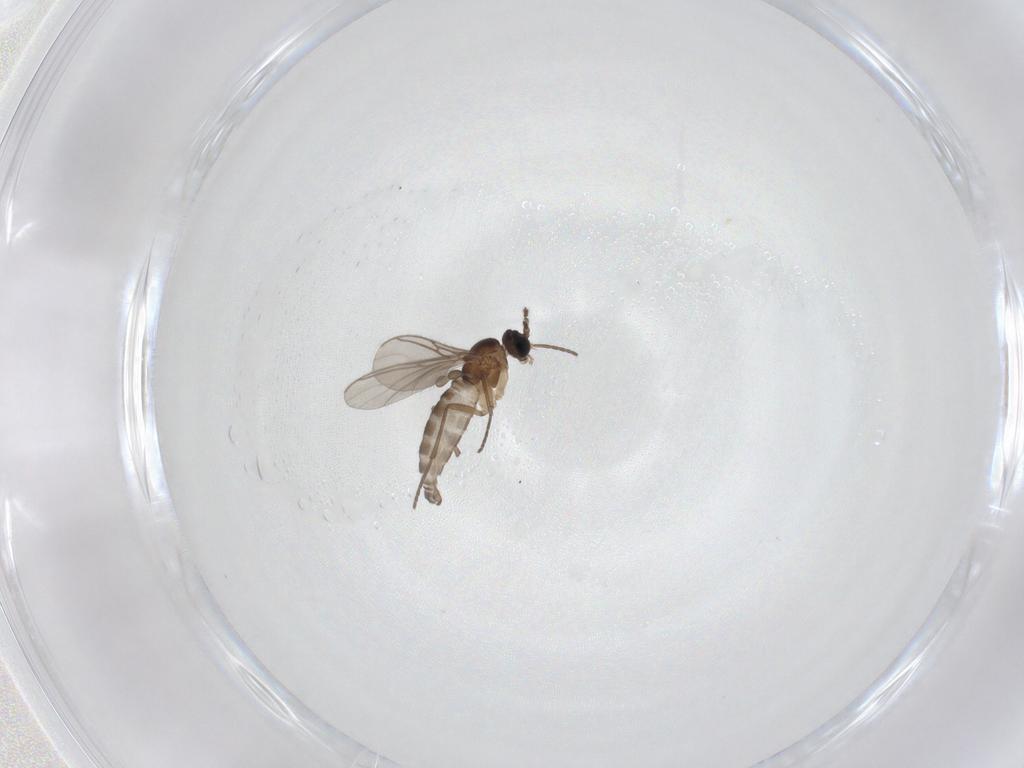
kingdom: Animalia
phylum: Arthropoda
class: Insecta
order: Diptera
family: Sciaridae
